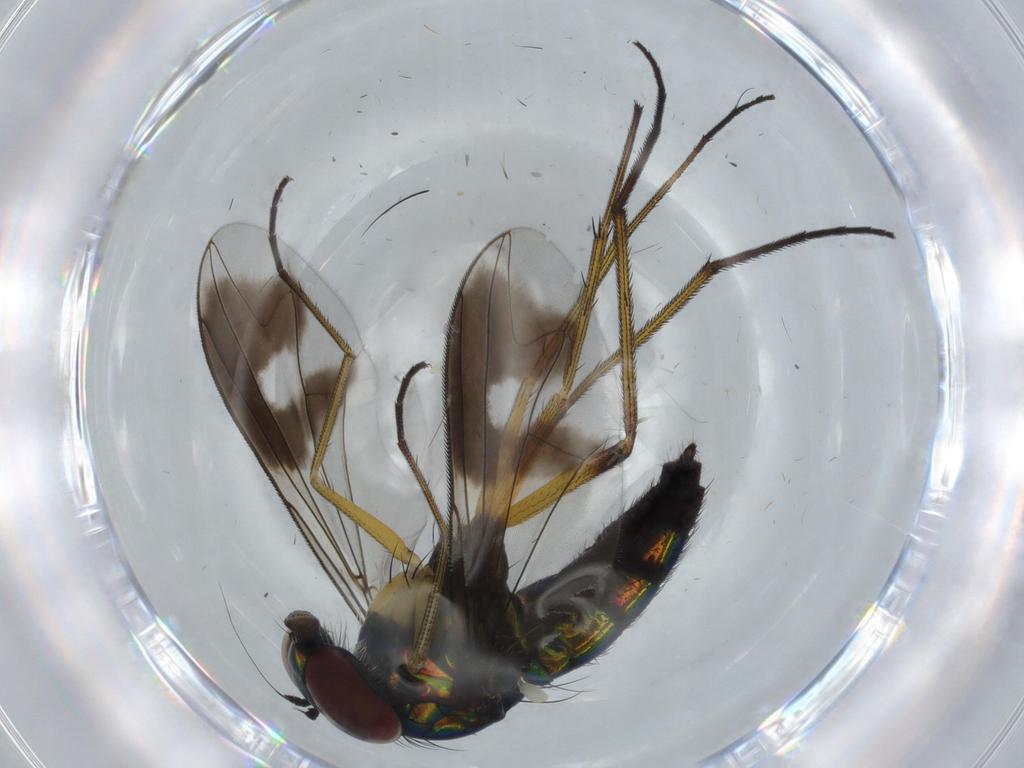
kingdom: Animalia
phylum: Arthropoda
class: Insecta
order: Diptera
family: Dolichopodidae
